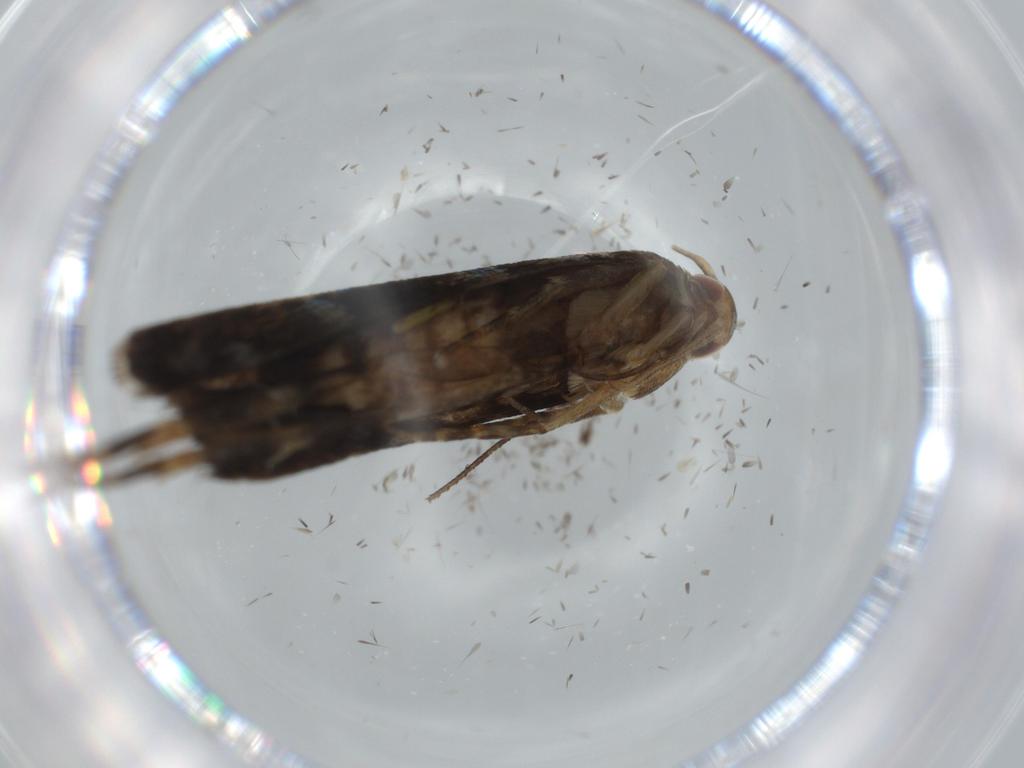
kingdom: Animalia
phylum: Arthropoda
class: Insecta
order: Lepidoptera
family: Gelechiidae
